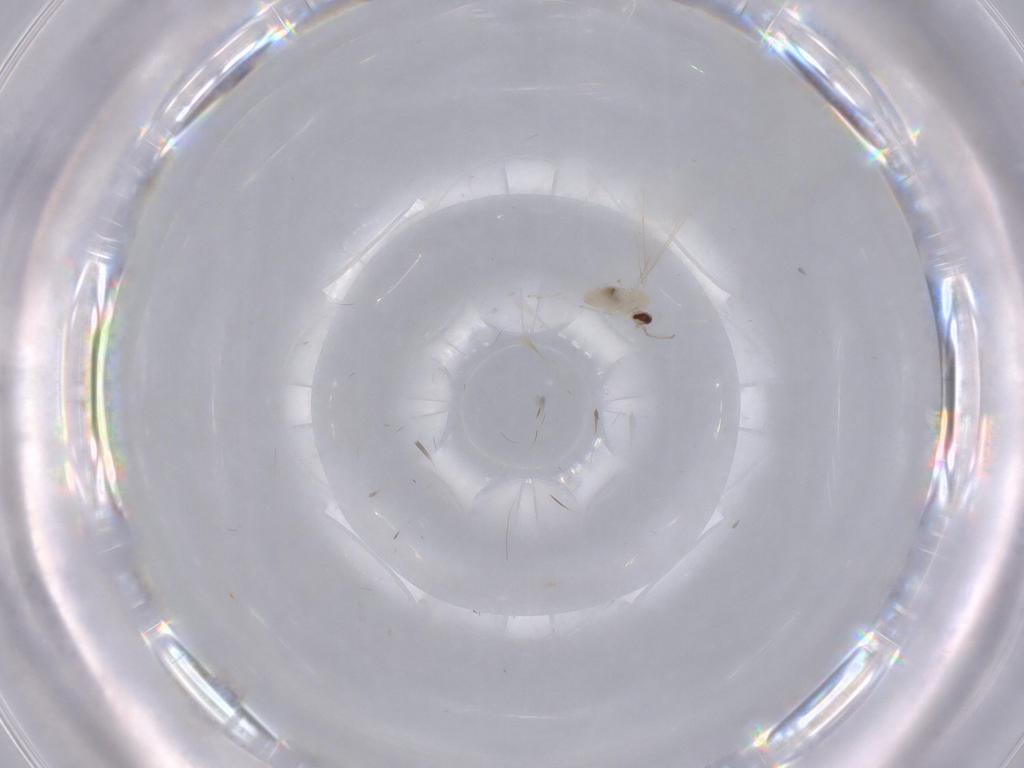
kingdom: Animalia
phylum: Arthropoda
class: Insecta
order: Diptera
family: Cecidomyiidae
